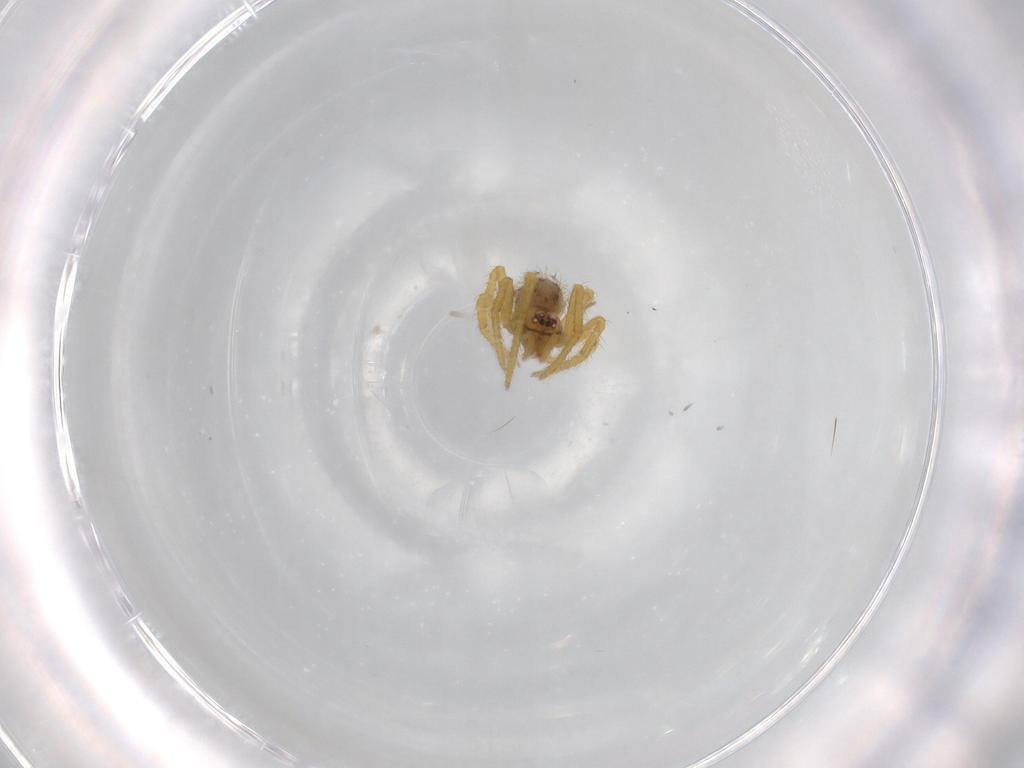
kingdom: Animalia
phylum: Arthropoda
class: Arachnida
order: Araneae
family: Theridiidae
